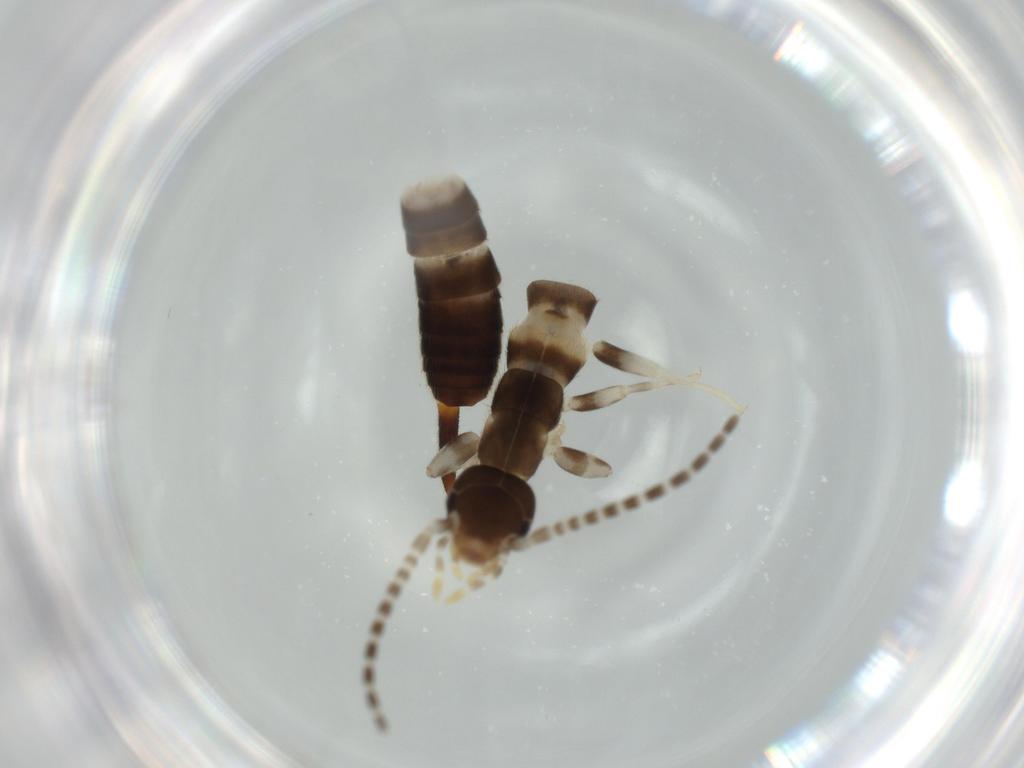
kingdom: Animalia
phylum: Arthropoda
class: Insecta
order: Dermaptera
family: Forficulidae
